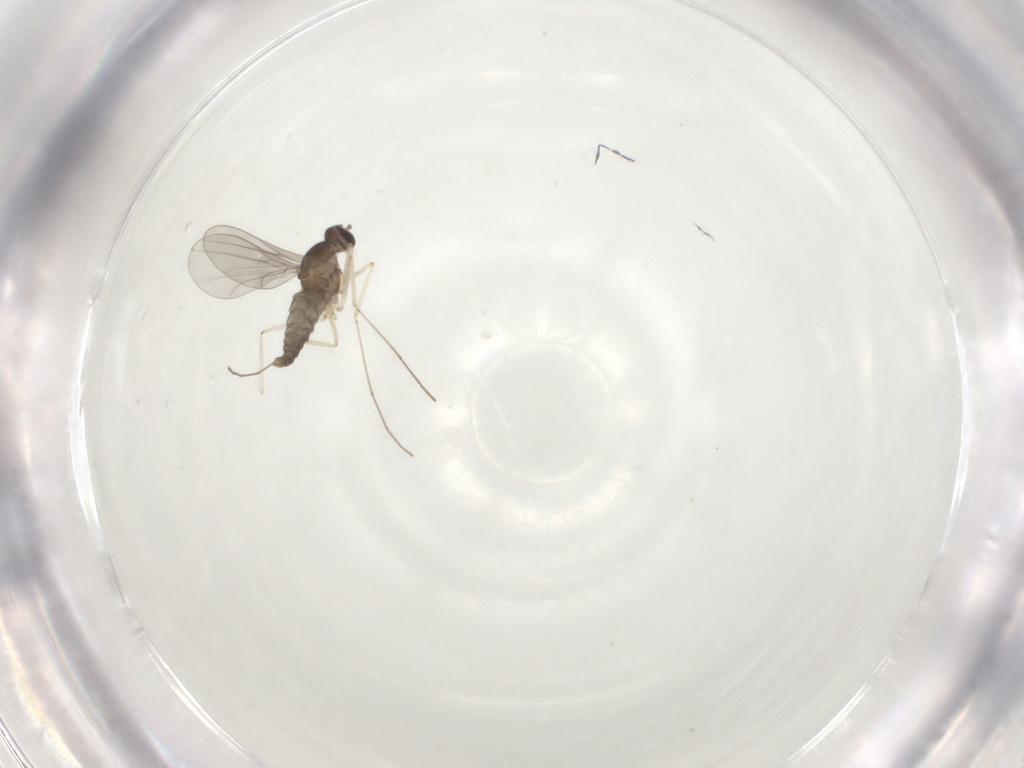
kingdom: Animalia
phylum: Arthropoda
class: Insecta
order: Diptera
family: Cecidomyiidae
